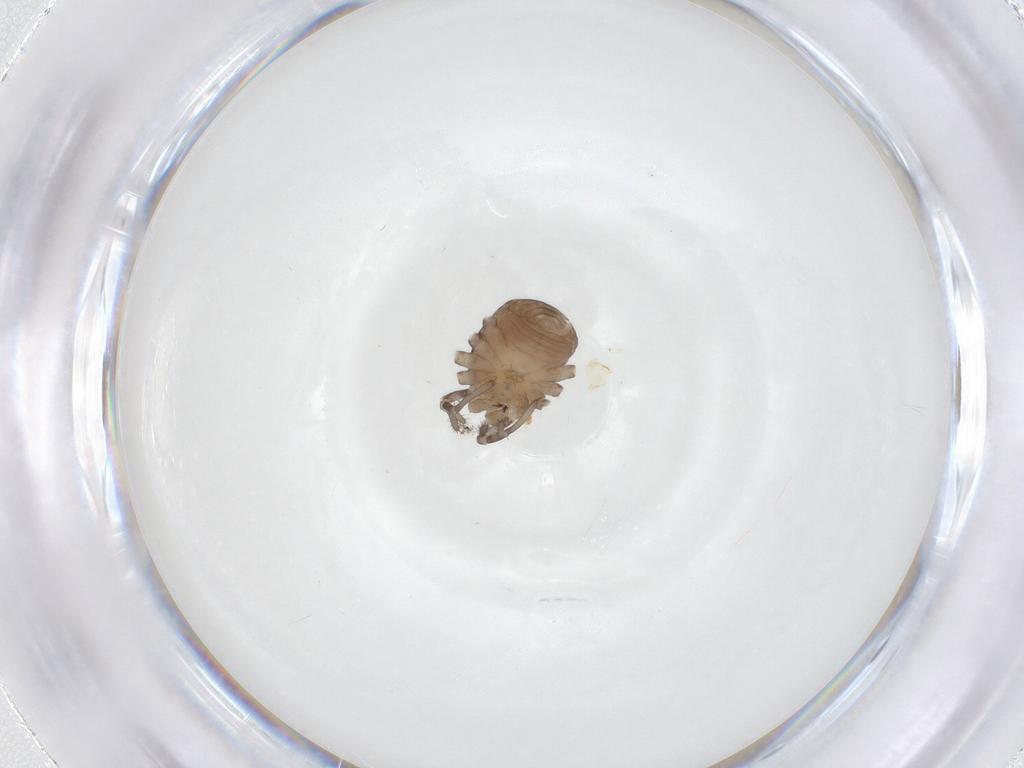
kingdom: Animalia
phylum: Arthropoda
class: Arachnida
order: Opiliones
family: Sclerosomatidae
